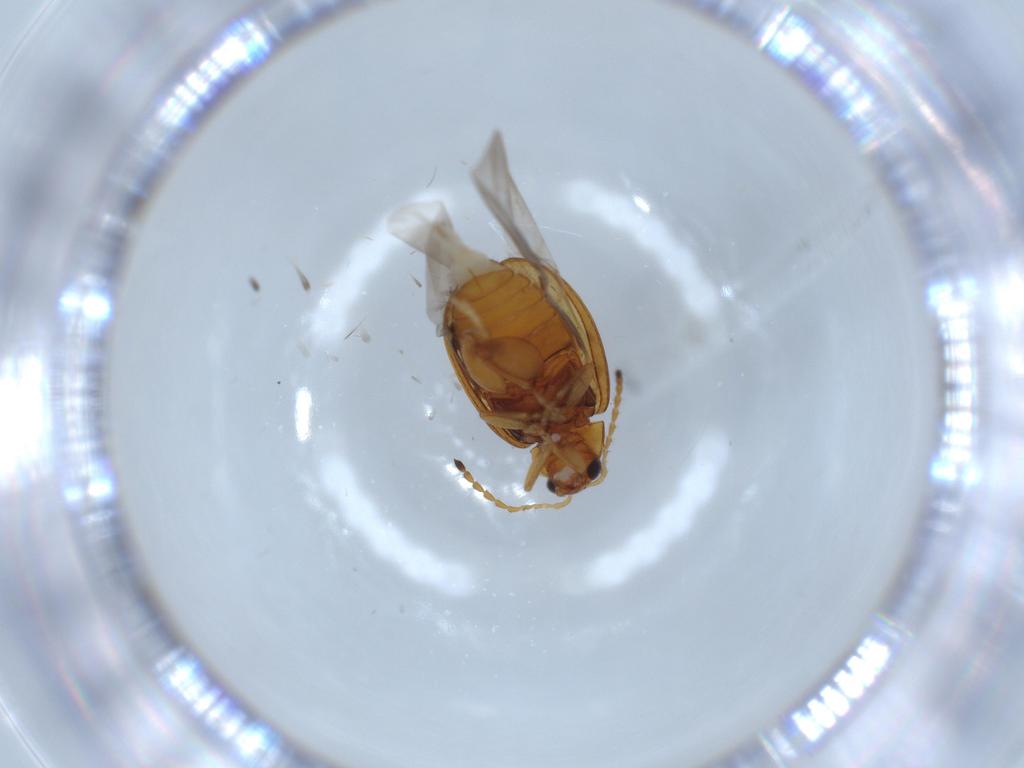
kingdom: Animalia
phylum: Arthropoda
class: Insecta
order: Coleoptera
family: Chrysomelidae
